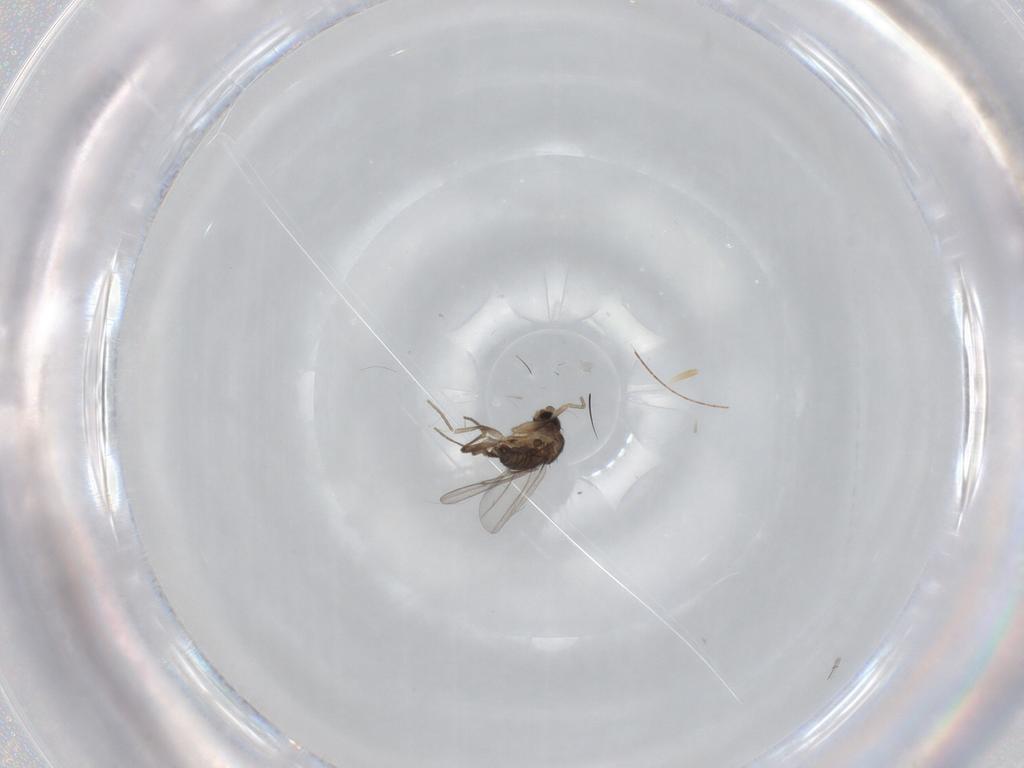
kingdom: Animalia
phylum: Arthropoda
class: Insecta
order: Diptera
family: Phoridae
